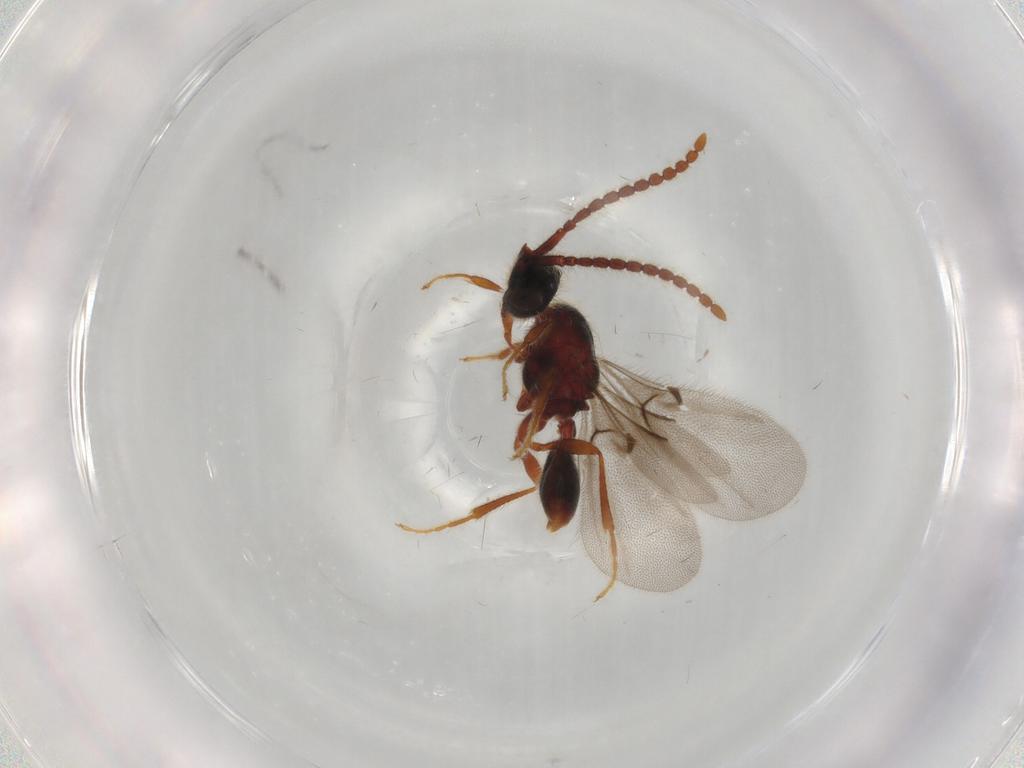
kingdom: Animalia
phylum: Arthropoda
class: Insecta
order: Hymenoptera
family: Diapriidae
